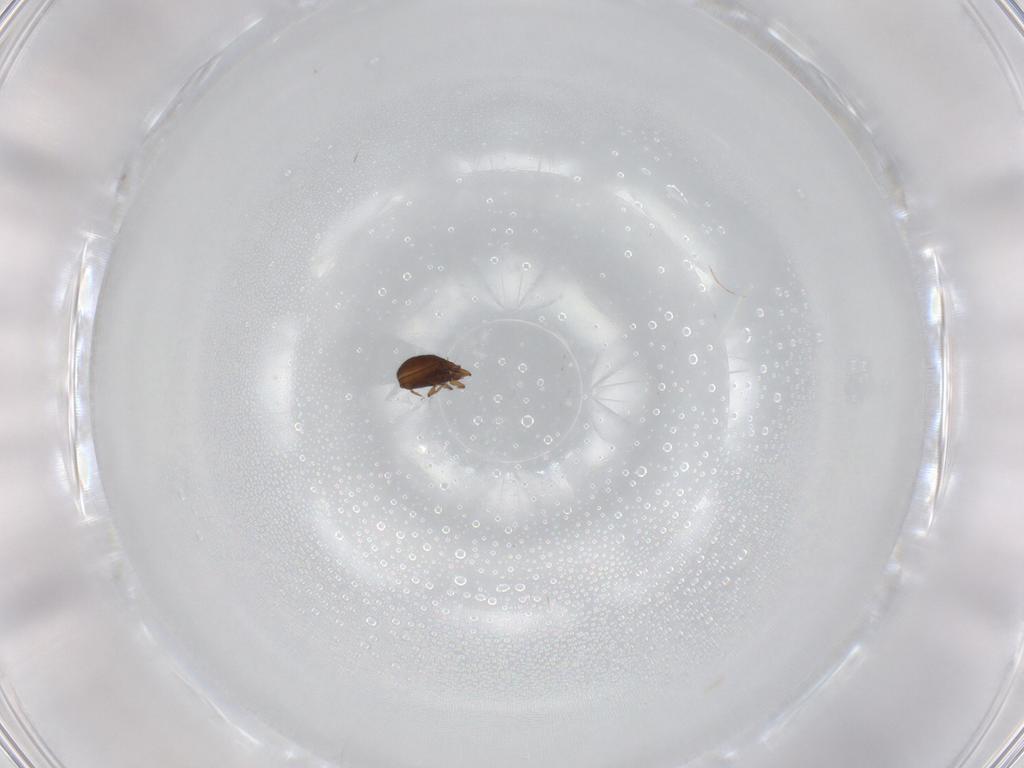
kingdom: Animalia
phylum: Arthropoda
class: Arachnida
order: Sarcoptiformes
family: Oribatulidae
